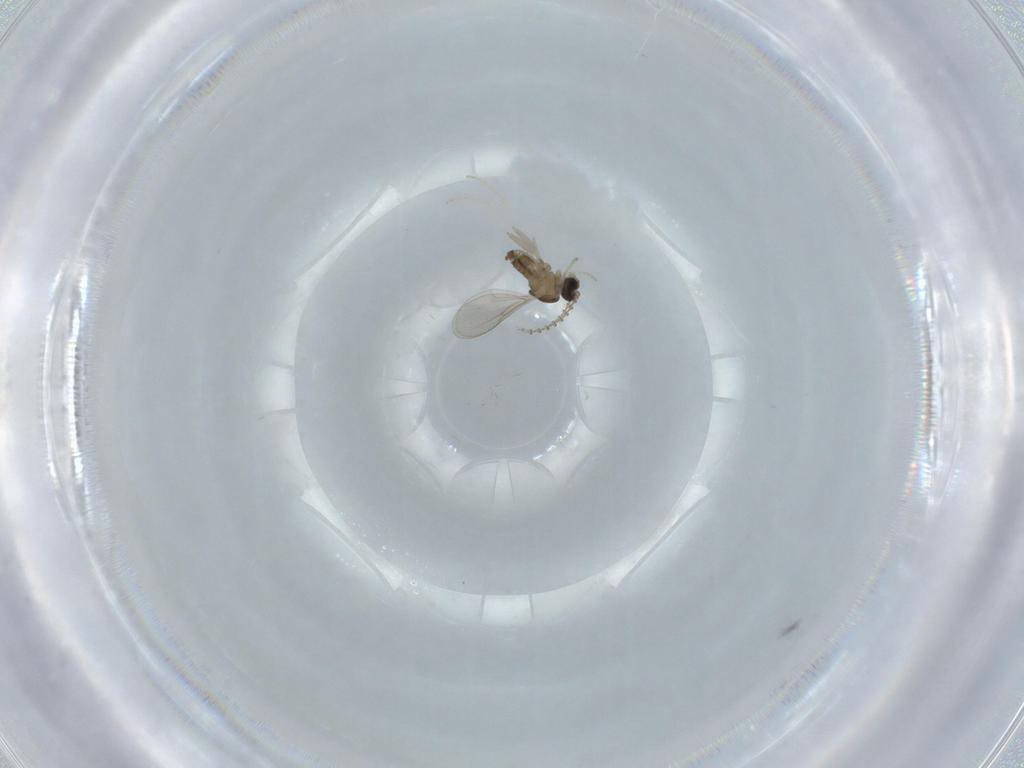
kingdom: Animalia
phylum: Arthropoda
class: Insecta
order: Diptera
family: Cecidomyiidae
